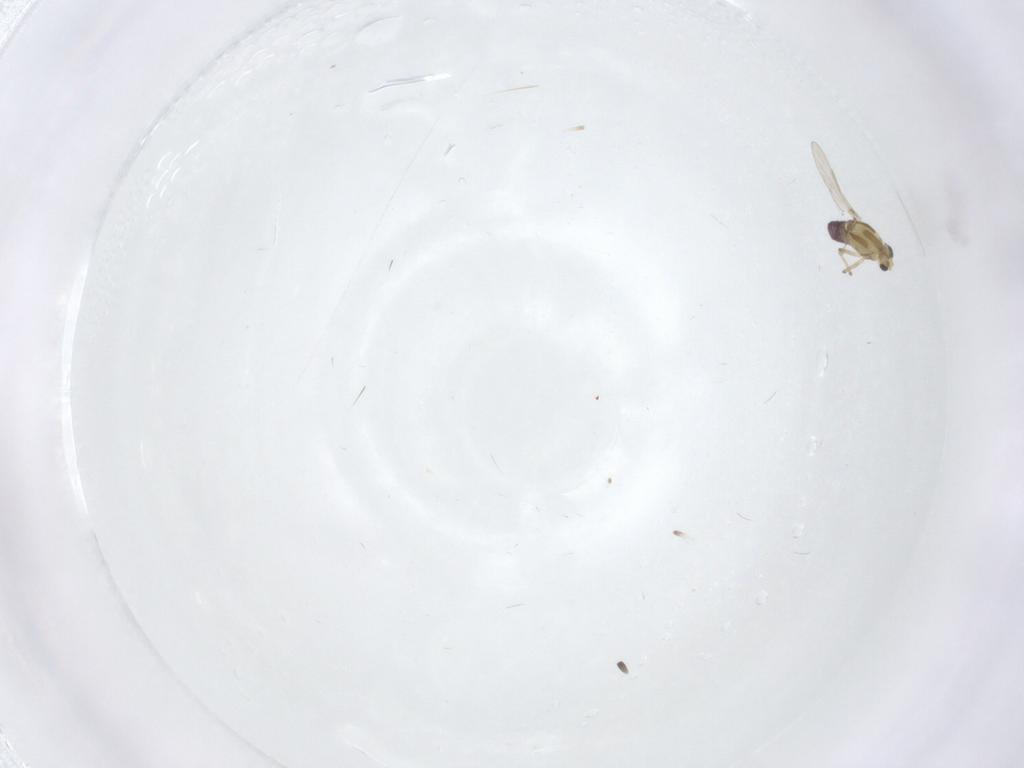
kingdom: Animalia
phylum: Arthropoda
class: Insecta
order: Diptera
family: Chironomidae
